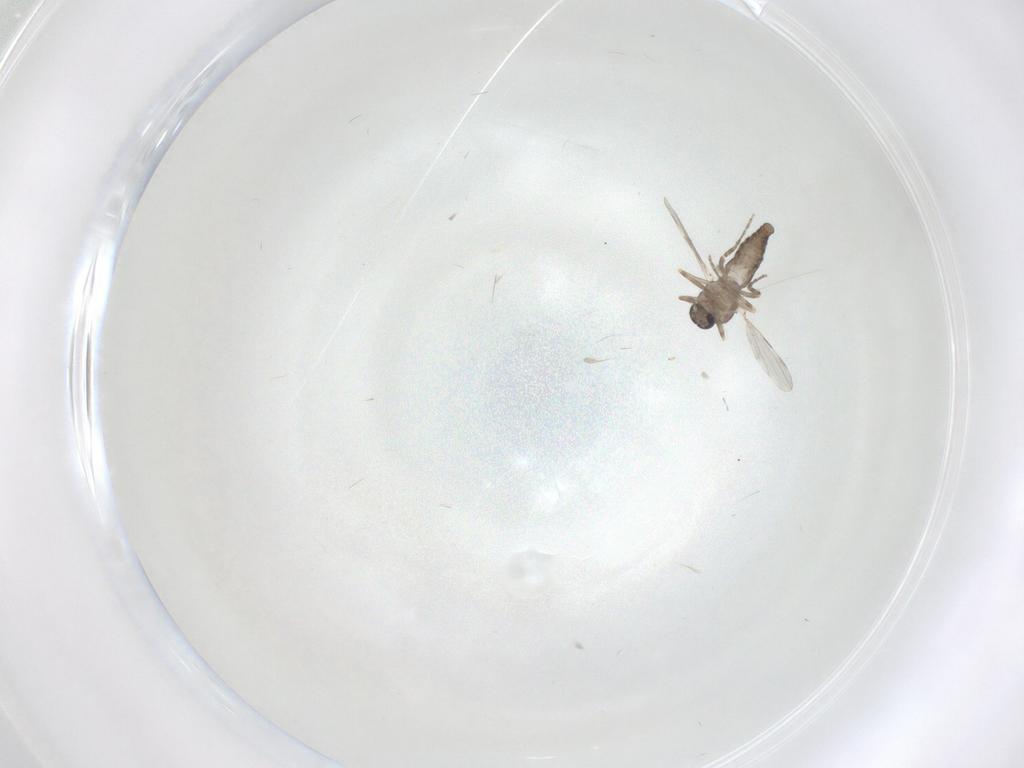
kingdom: Animalia
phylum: Arthropoda
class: Insecta
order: Diptera
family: Ceratopogonidae
